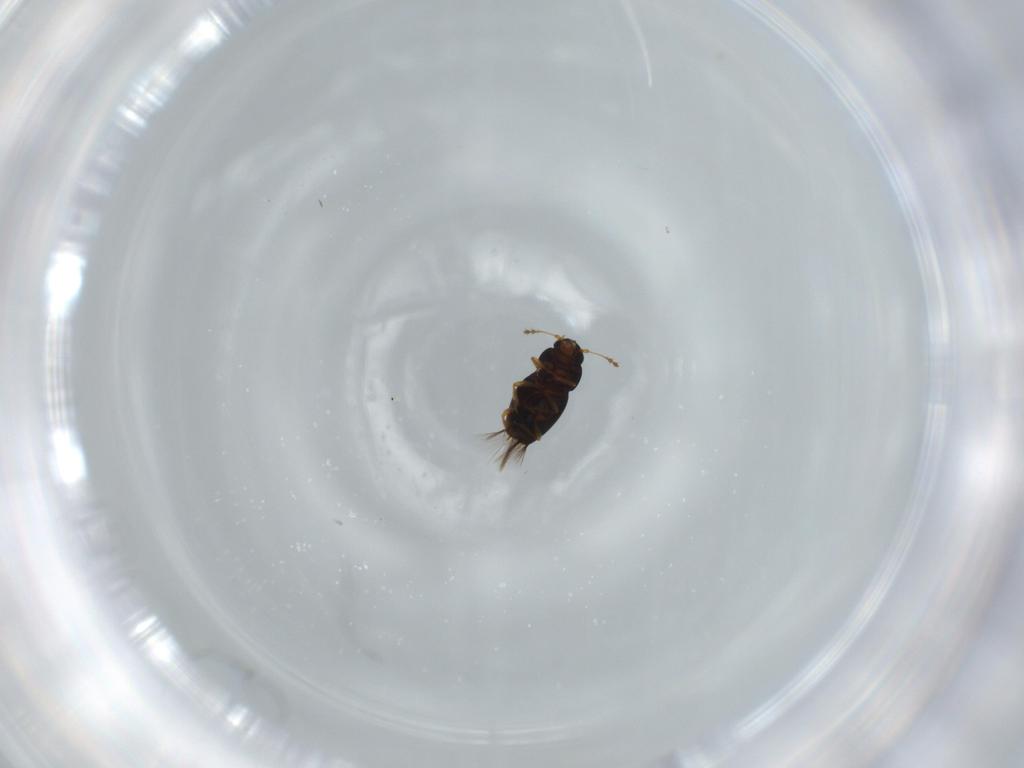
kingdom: Animalia
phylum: Arthropoda
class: Insecta
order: Coleoptera
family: Ptiliidae
